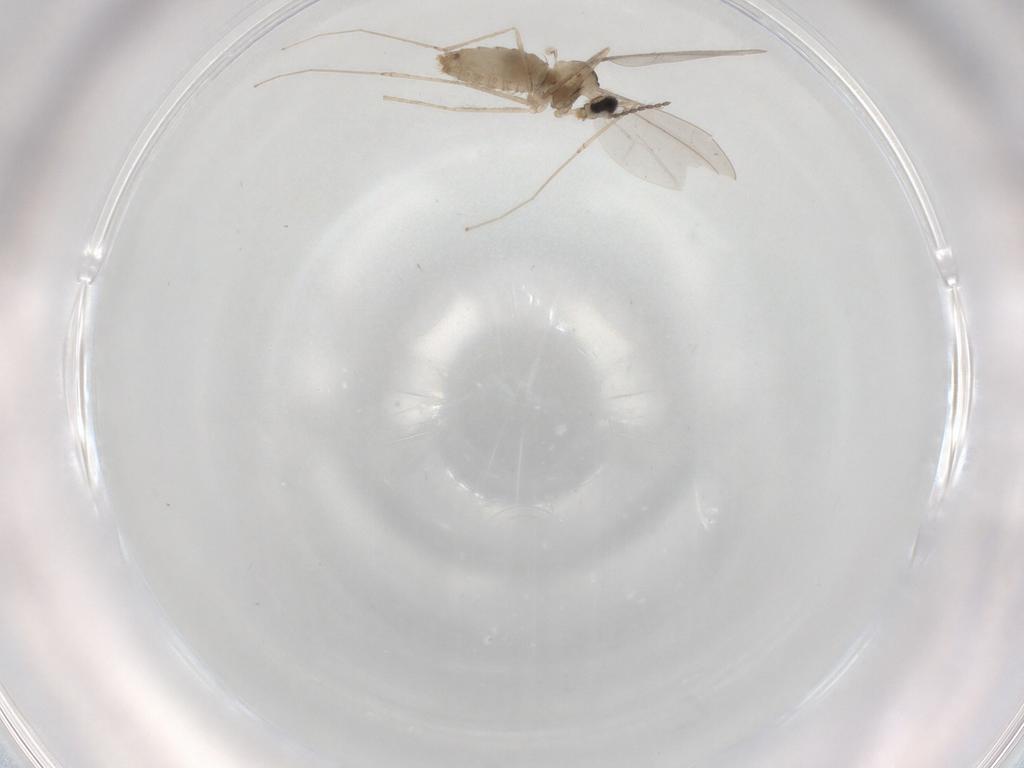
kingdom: Animalia
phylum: Arthropoda
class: Insecta
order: Diptera
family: Cecidomyiidae
